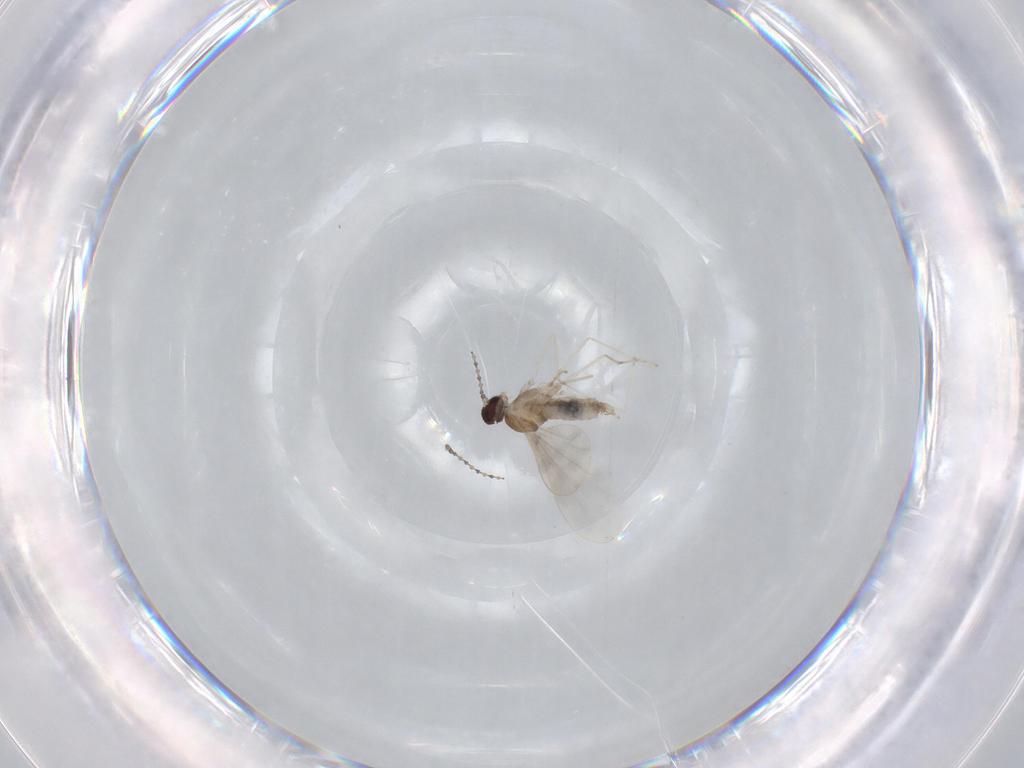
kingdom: Animalia
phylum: Arthropoda
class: Insecta
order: Diptera
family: Cecidomyiidae
